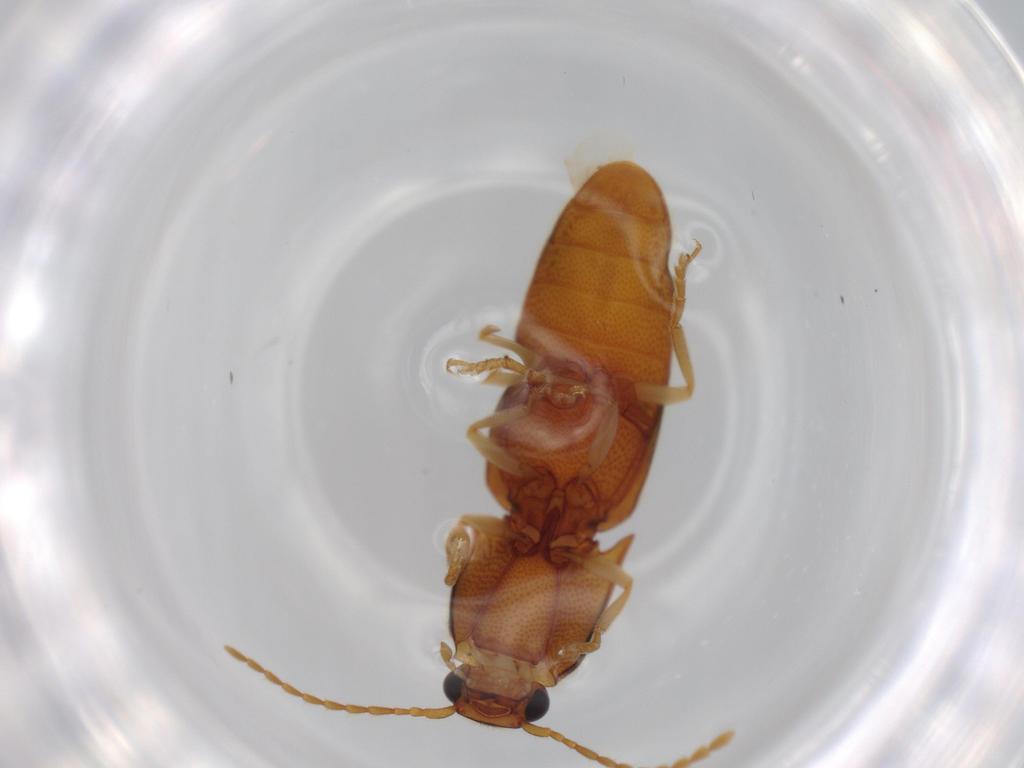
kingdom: Animalia
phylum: Arthropoda
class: Insecta
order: Coleoptera
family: Elateridae
